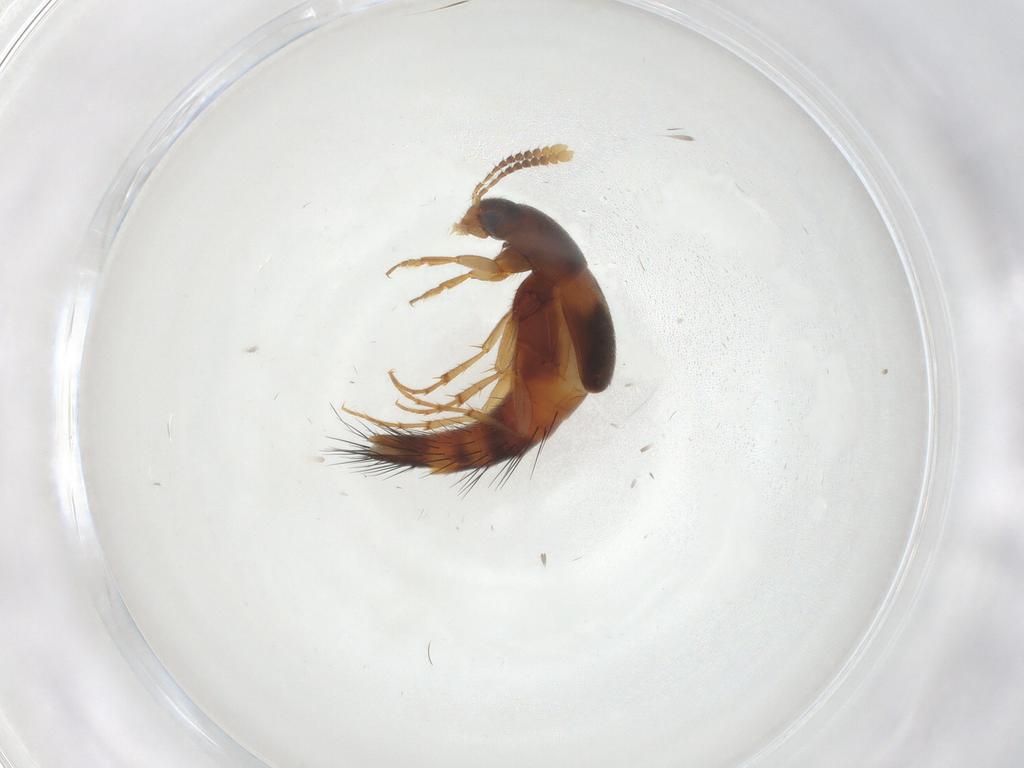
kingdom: Animalia
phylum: Arthropoda
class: Insecta
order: Coleoptera
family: Staphylinidae
